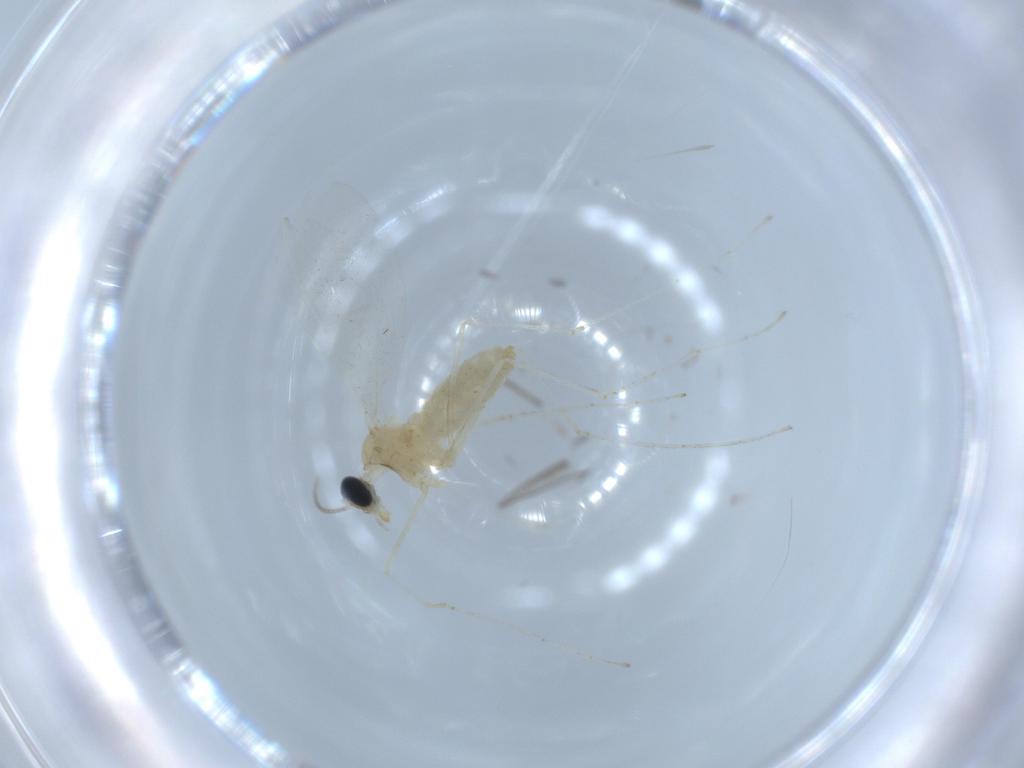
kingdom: Animalia
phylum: Arthropoda
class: Insecta
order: Diptera
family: Cecidomyiidae
